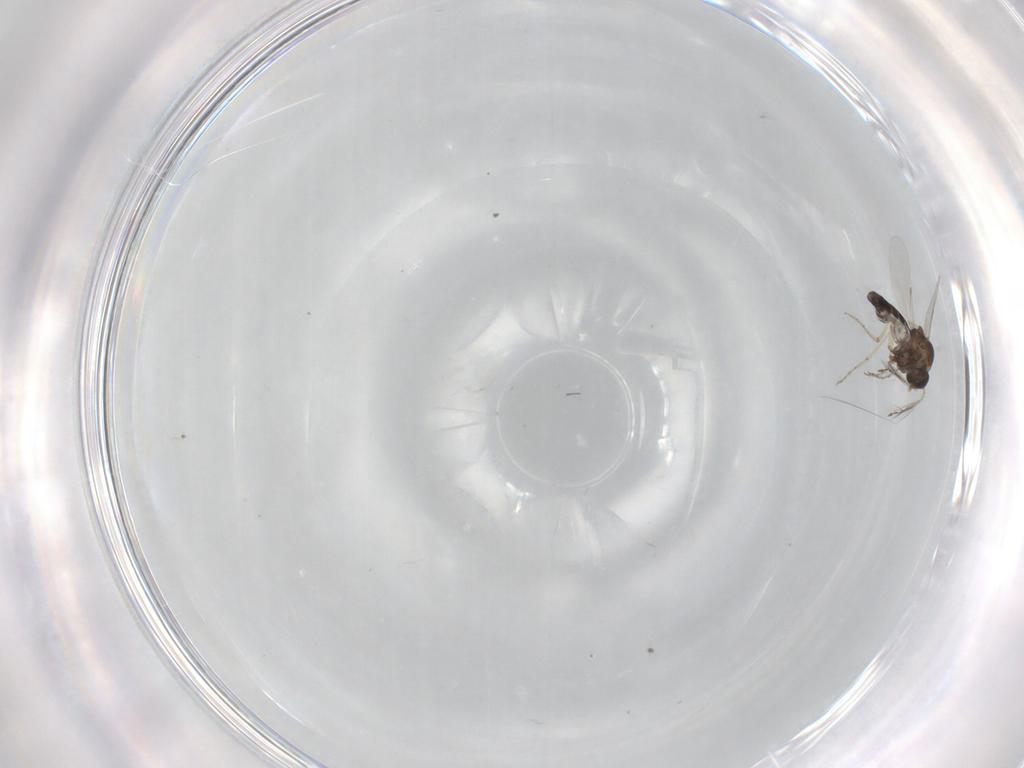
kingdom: Animalia
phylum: Arthropoda
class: Insecta
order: Diptera
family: Ceratopogonidae
